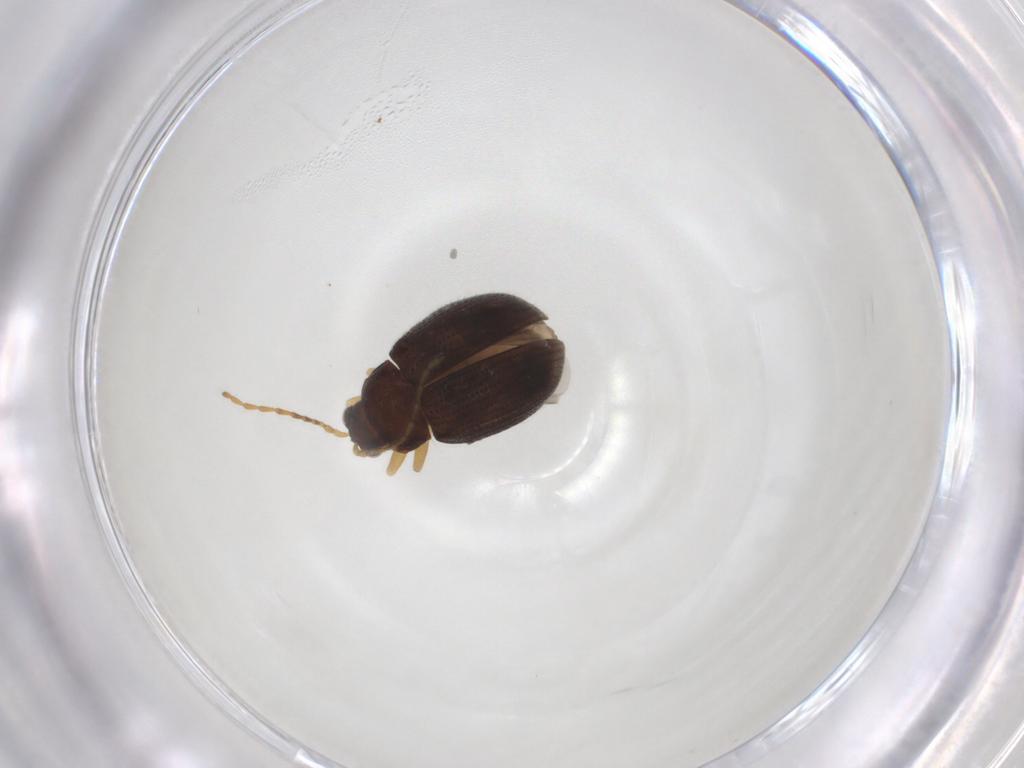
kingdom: Animalia
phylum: Arthropoda
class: Insecta
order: Coleoptera
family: Chrysomelidae
